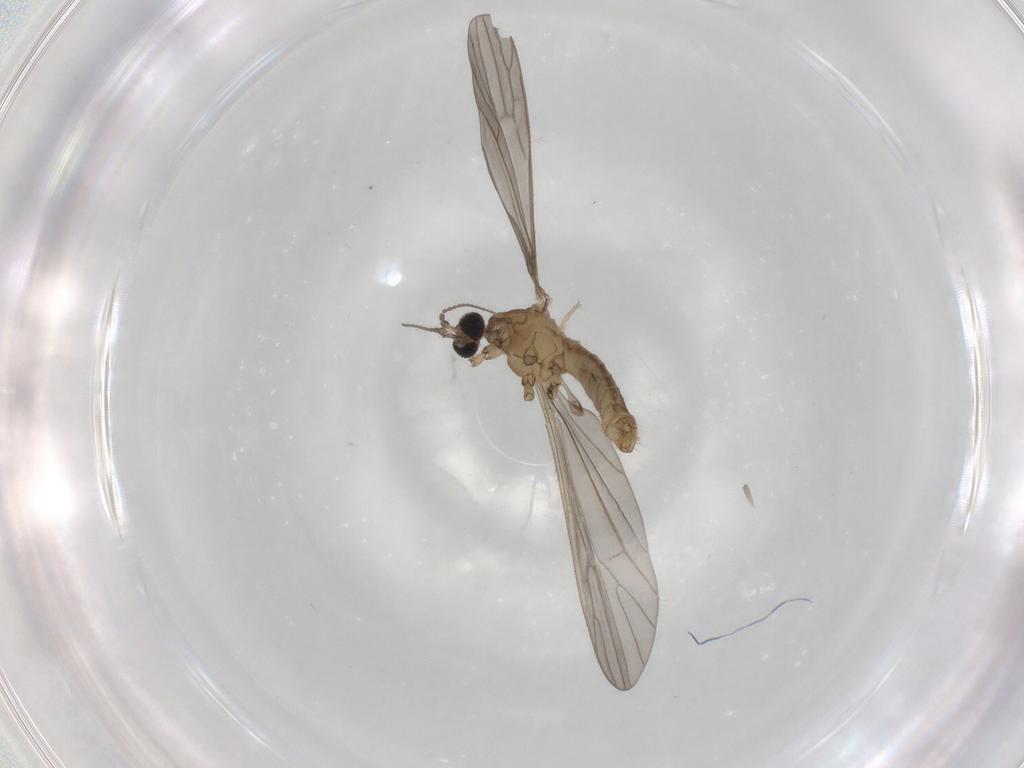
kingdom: Animalia
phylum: Arthropoda
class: Insecta
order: Diptera
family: Limoniidae
